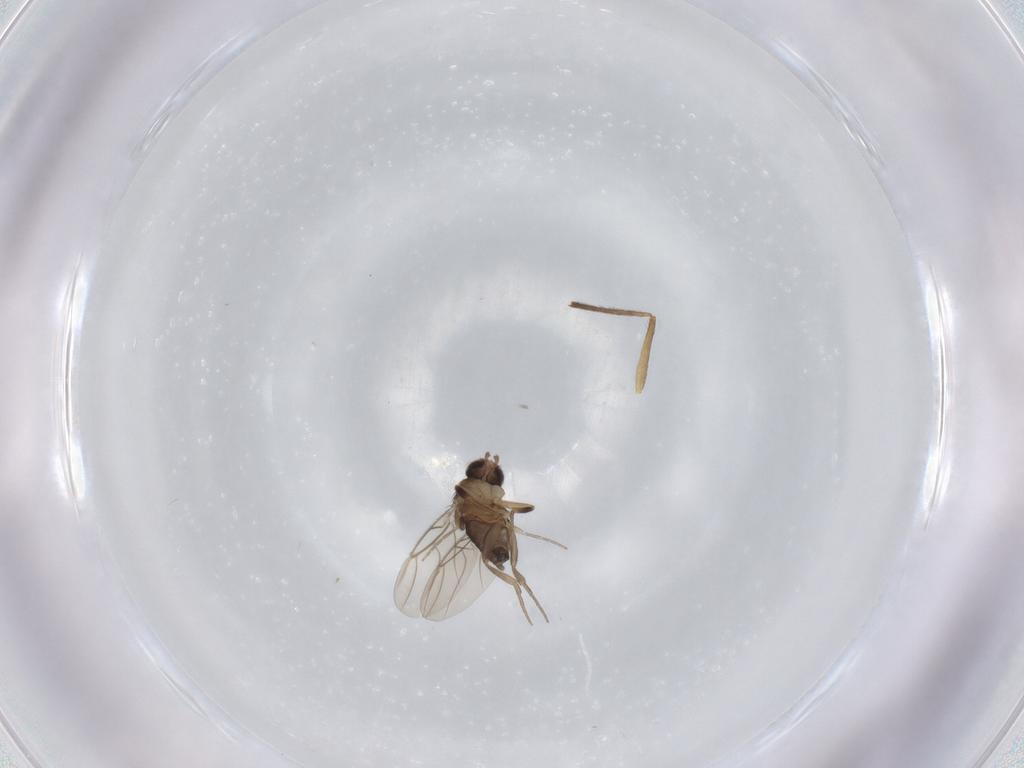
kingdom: Animalia
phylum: Arthropoda
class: Insecta
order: Diptera
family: Phoridae
